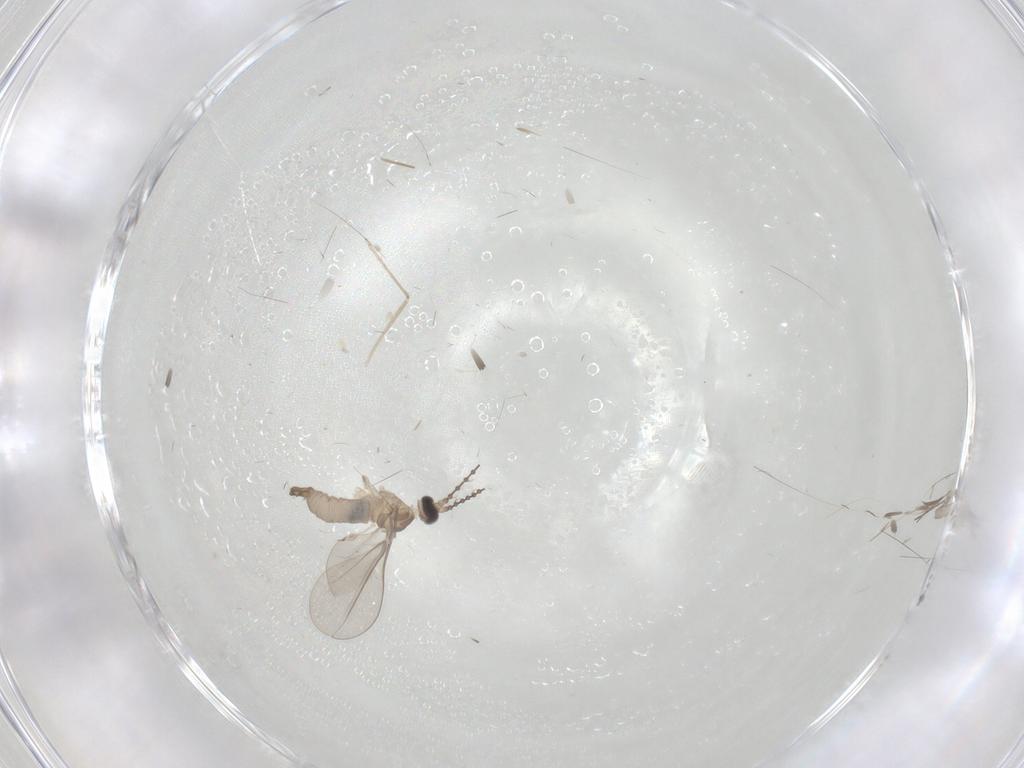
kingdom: Animalia
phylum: Arthropoda
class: Insecta
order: Diptera
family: Cecidomyiidae
